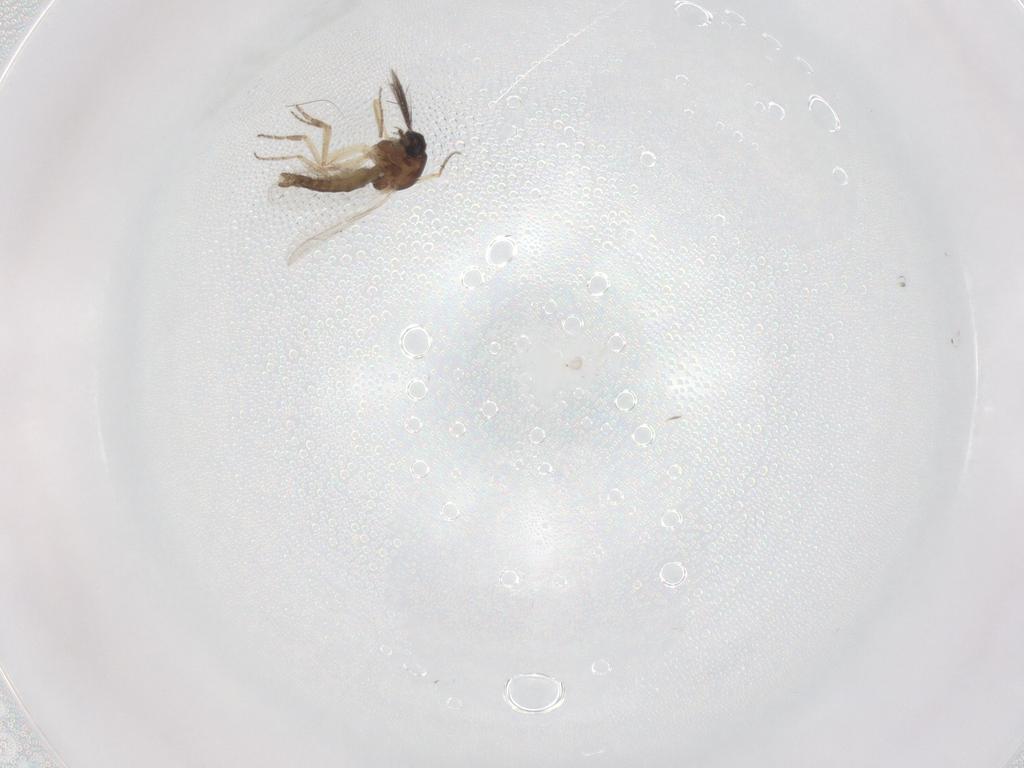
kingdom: Animalia
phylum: Arthropoda
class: Insecta
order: Diptera
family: Ceratopogonidae
